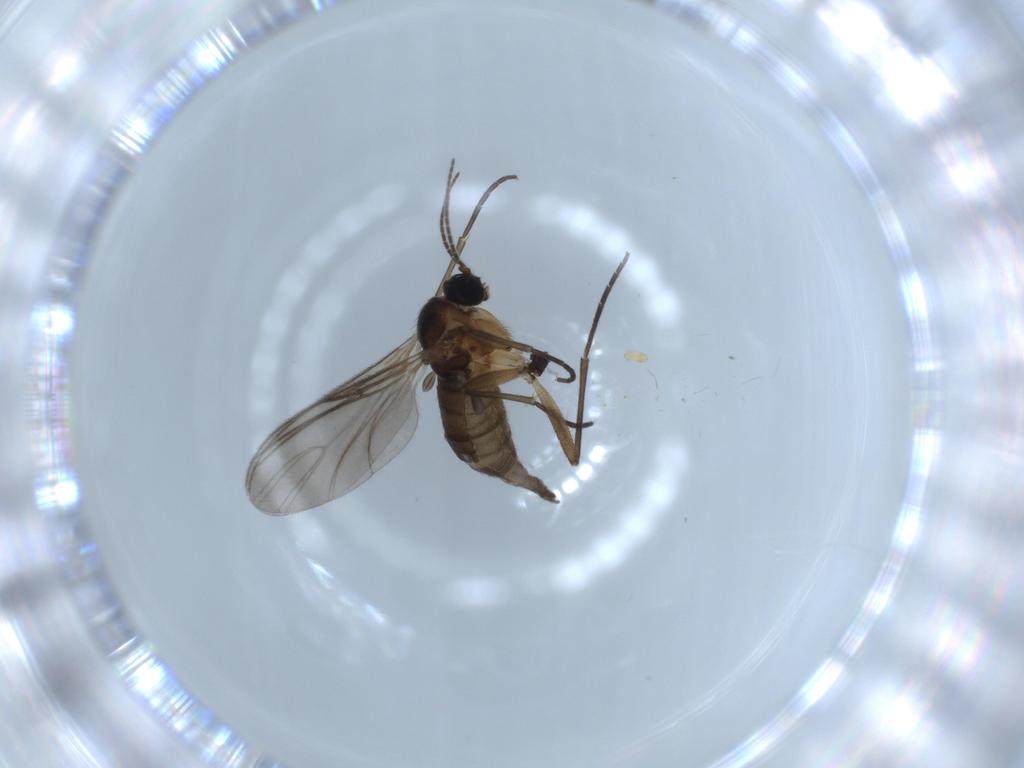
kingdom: Animalia
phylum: Arthropoda
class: Insecta
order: Diptera
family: Sciaridae
